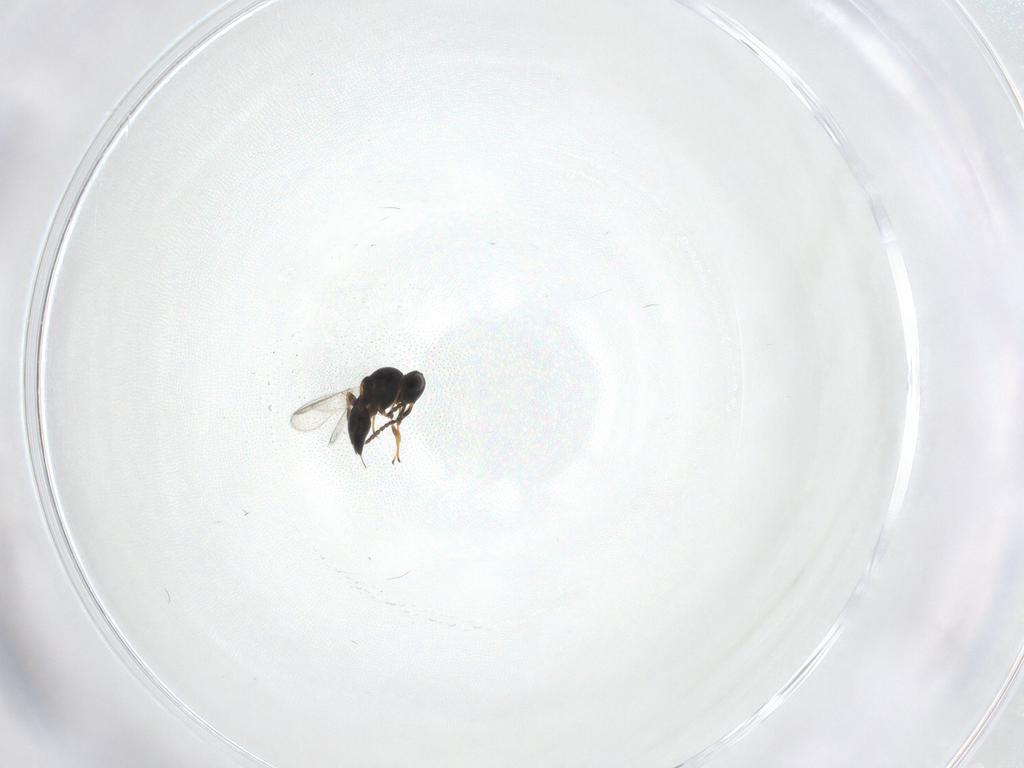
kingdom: Animalia
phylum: Arthropoda
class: Insecta
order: Hymenoptera
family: Platygastridae
